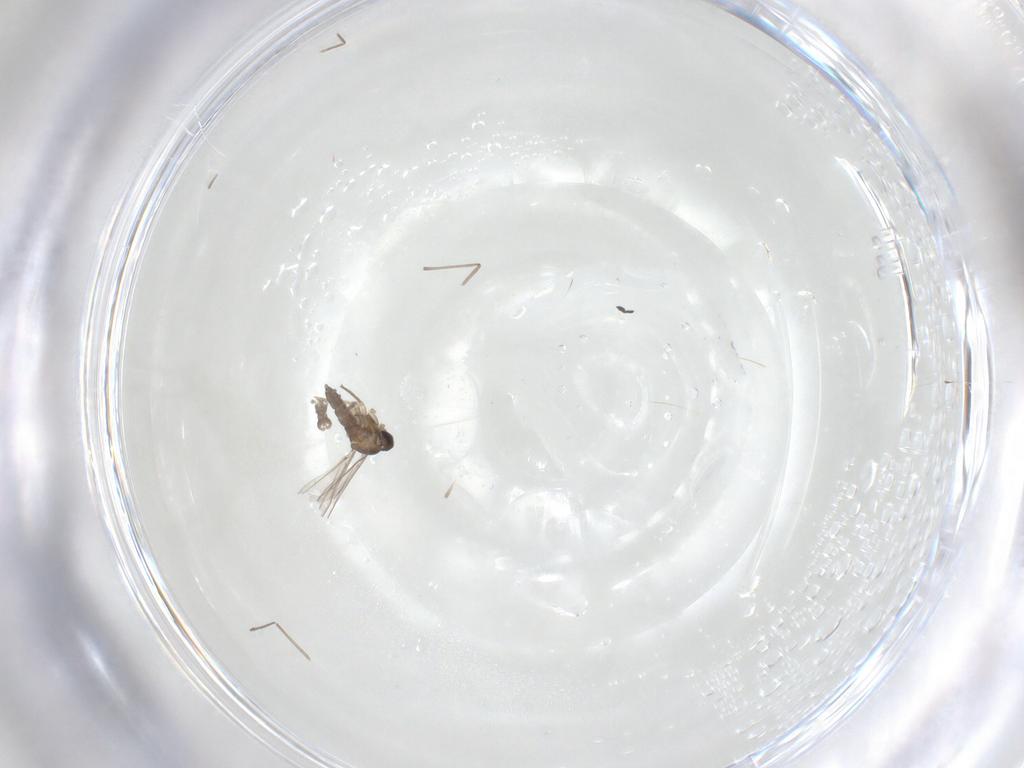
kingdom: Animalia
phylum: Arthropoda
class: Insecta
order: Diptera
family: Cecidomyiidae
